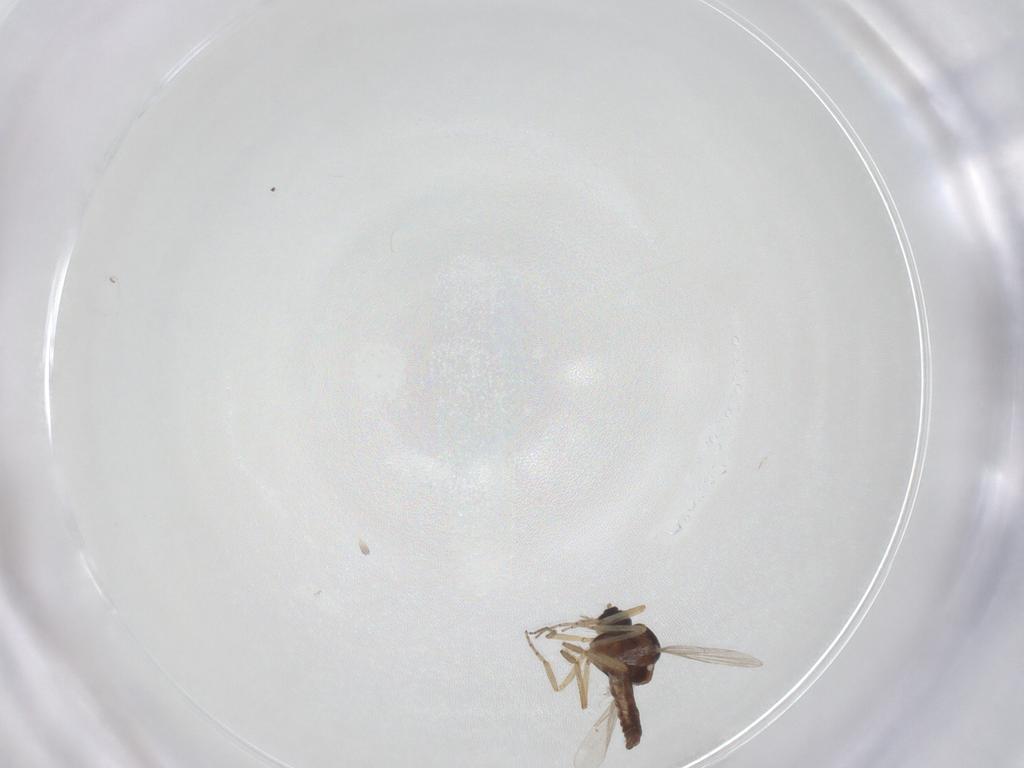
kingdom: Animalia
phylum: Arthropoda
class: Insecta
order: Diptera
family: Ceratopogonidae
